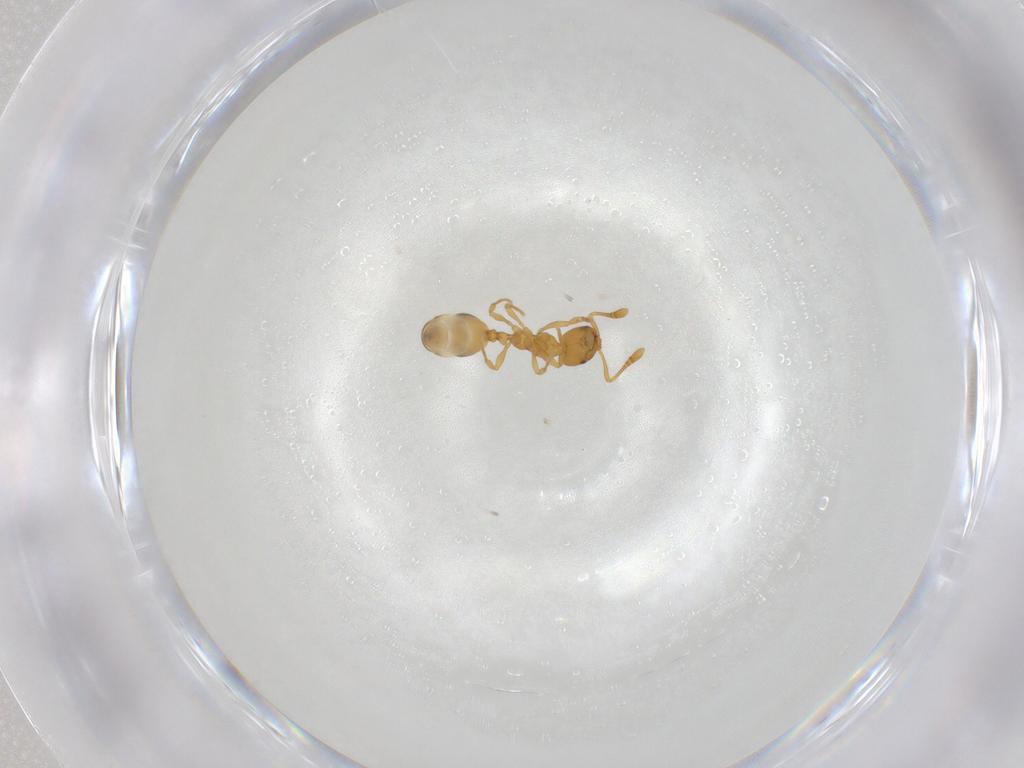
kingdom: Animalia
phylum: Arthropoda
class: Insecta
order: Hymenoptera
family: Formicidae
